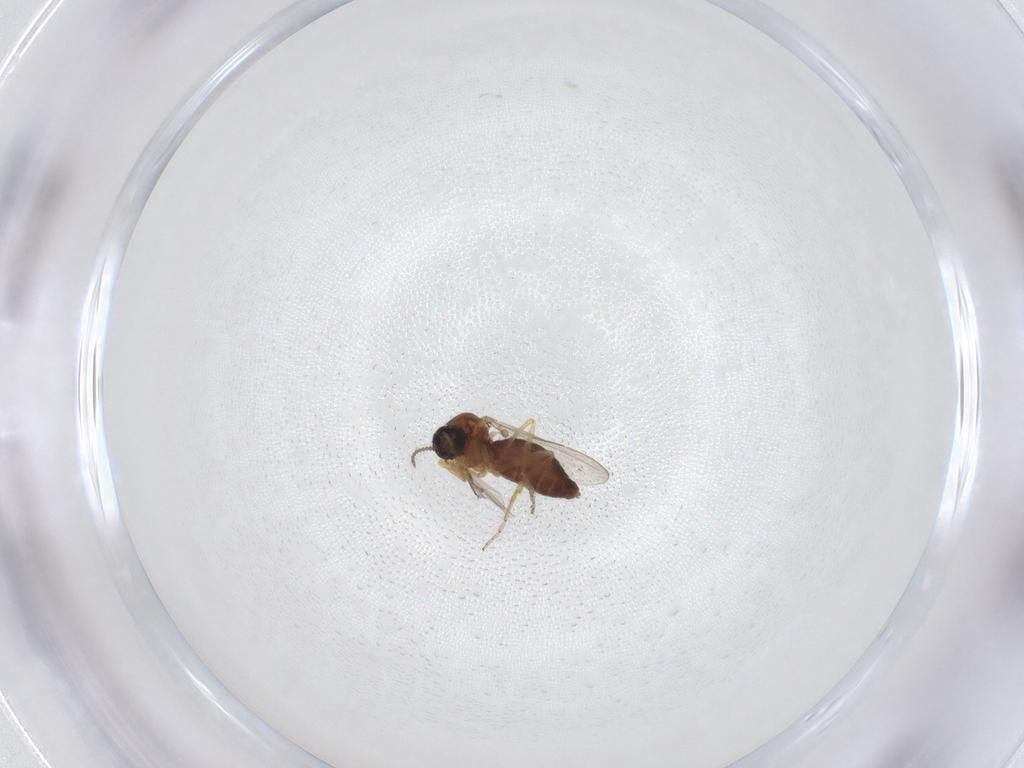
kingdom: Animalia
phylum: Arthropoda
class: Insecta
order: Diptera
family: Ceratopogonidae
